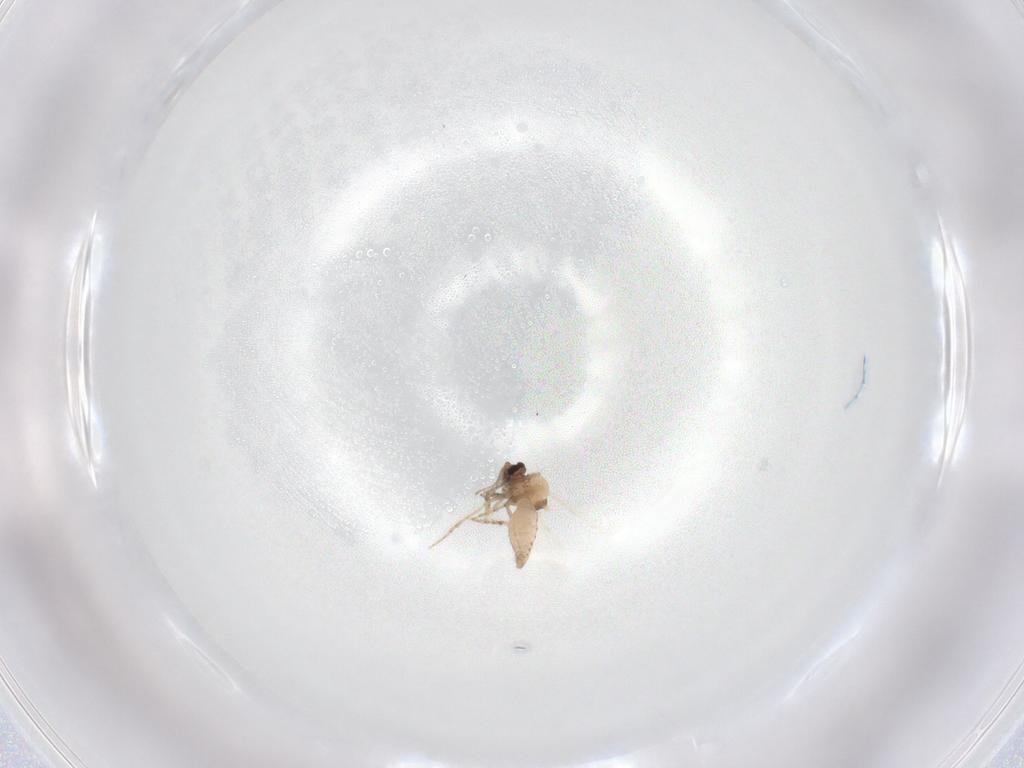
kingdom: Animalia
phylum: Arthropoda
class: Insecta
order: Diptera
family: Ceratopogonidae
